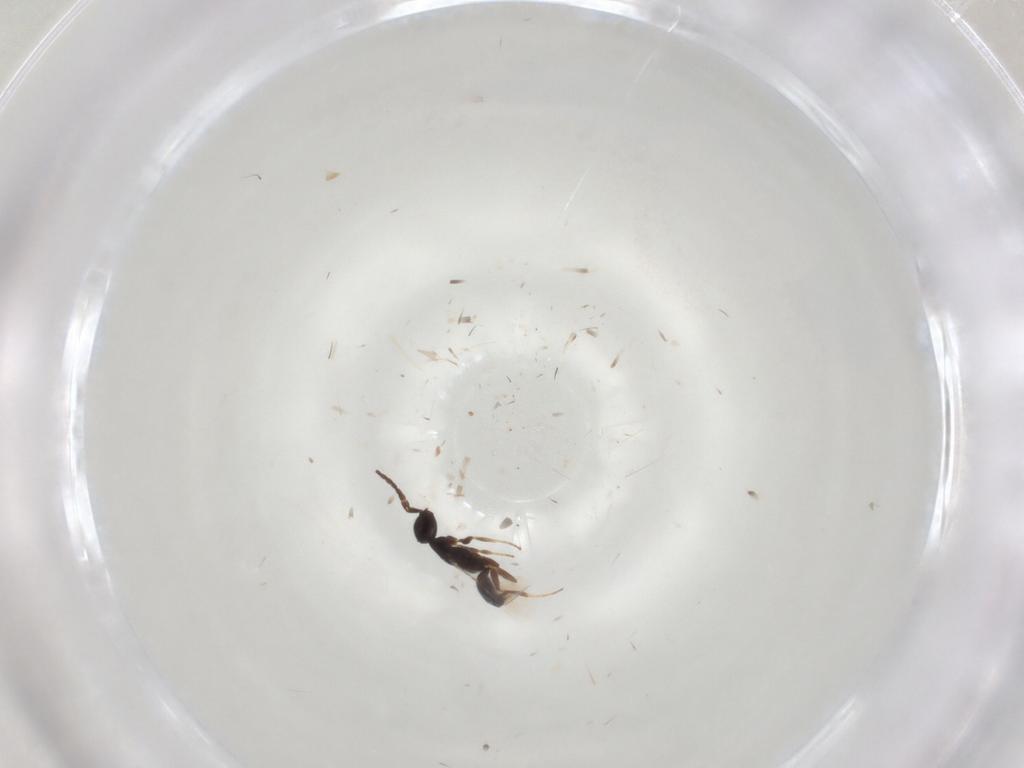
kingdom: Animalia
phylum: Arthropoda
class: Insecta
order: Hymenoptera
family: Bethylidae
